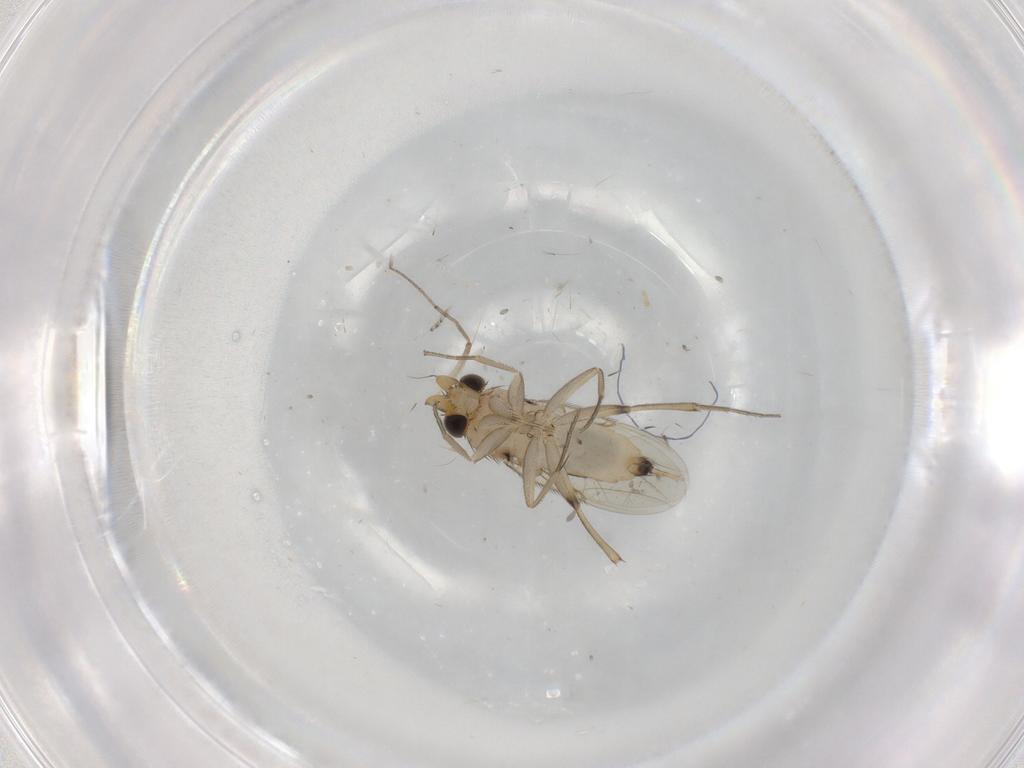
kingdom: Animalia
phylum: Arthropoda
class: Insecta
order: Diptera
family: Phoridae
